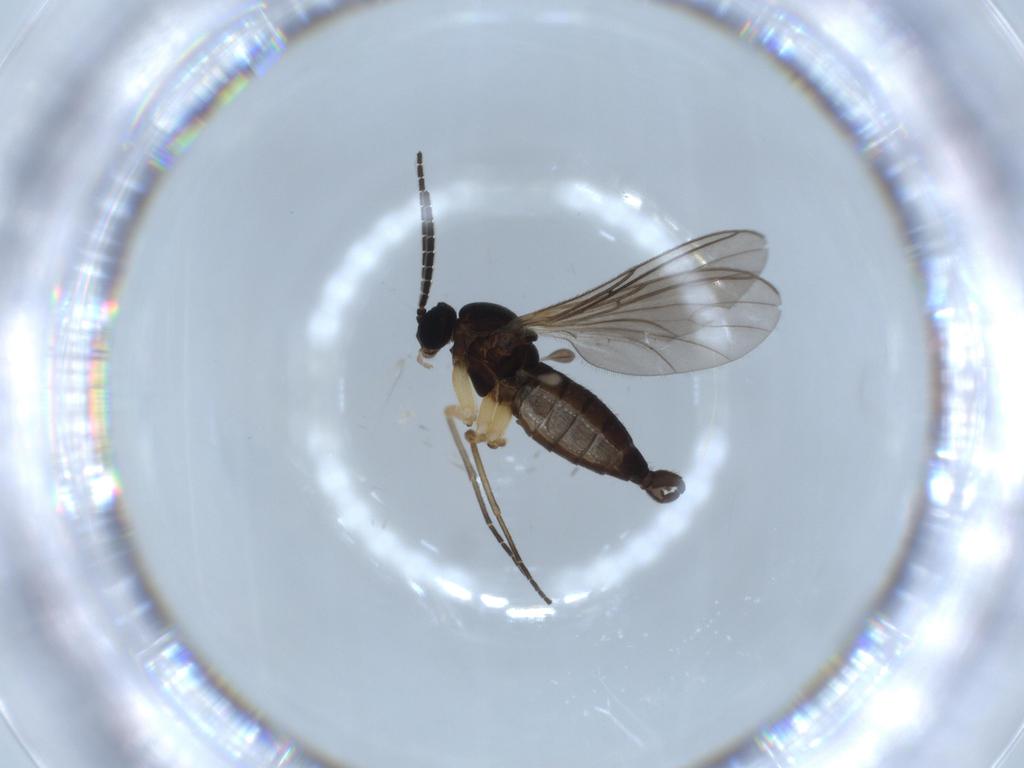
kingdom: Animalia
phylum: Arthropoda
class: Insecta
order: Diptera
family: Sciaridae
